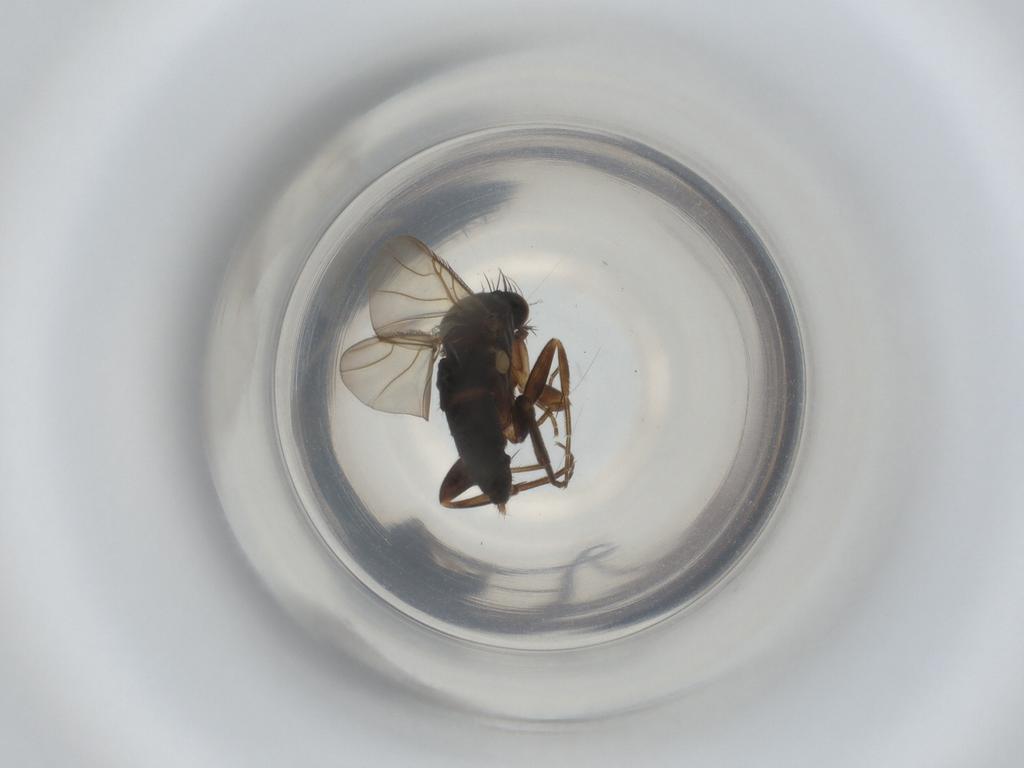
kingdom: Animalia
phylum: Arthropoda
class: Insecta
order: Diptera
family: Phoridae
